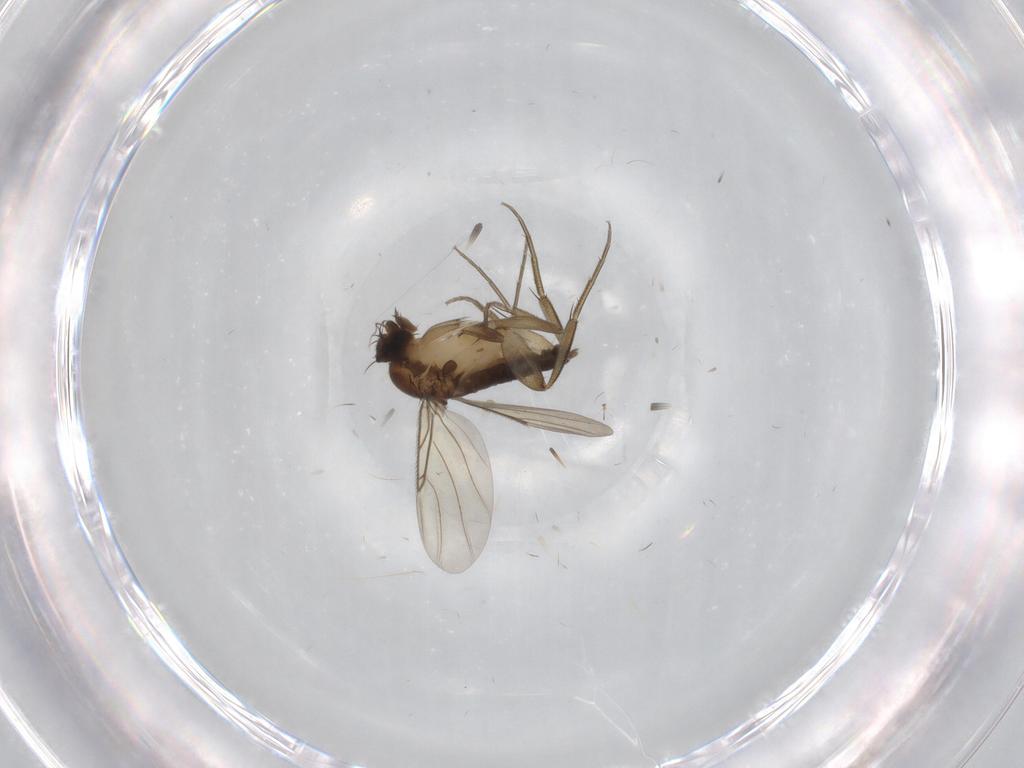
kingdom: Animalia
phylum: Arthropoda
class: Insecta
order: Diptera
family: Phoridae
